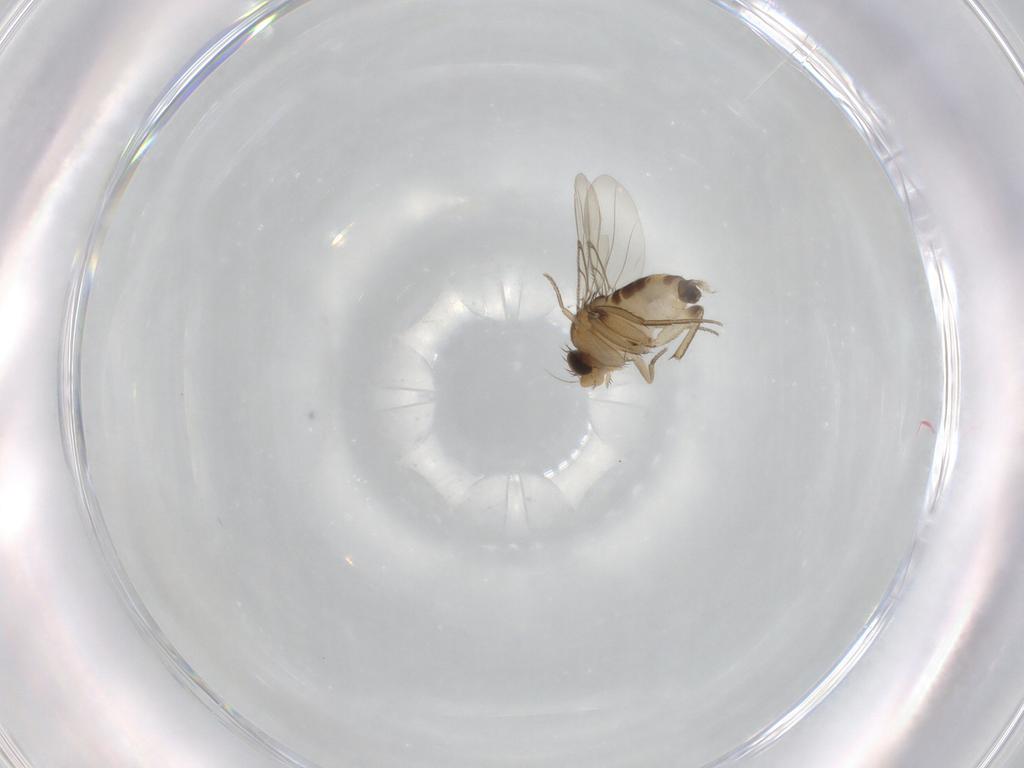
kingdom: Animalia
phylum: Arthropoda
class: Insecta
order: Diptera
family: Phoridae
